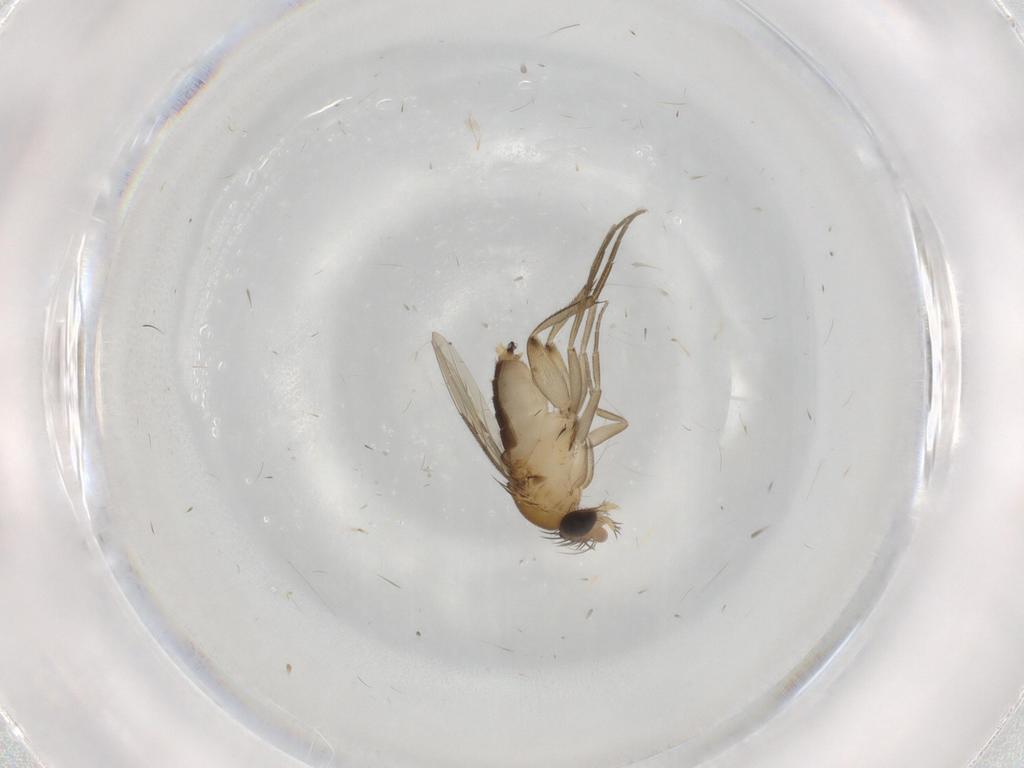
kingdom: Animalia
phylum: Arthropoda
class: Insecta
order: Diptera
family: Phoridae
